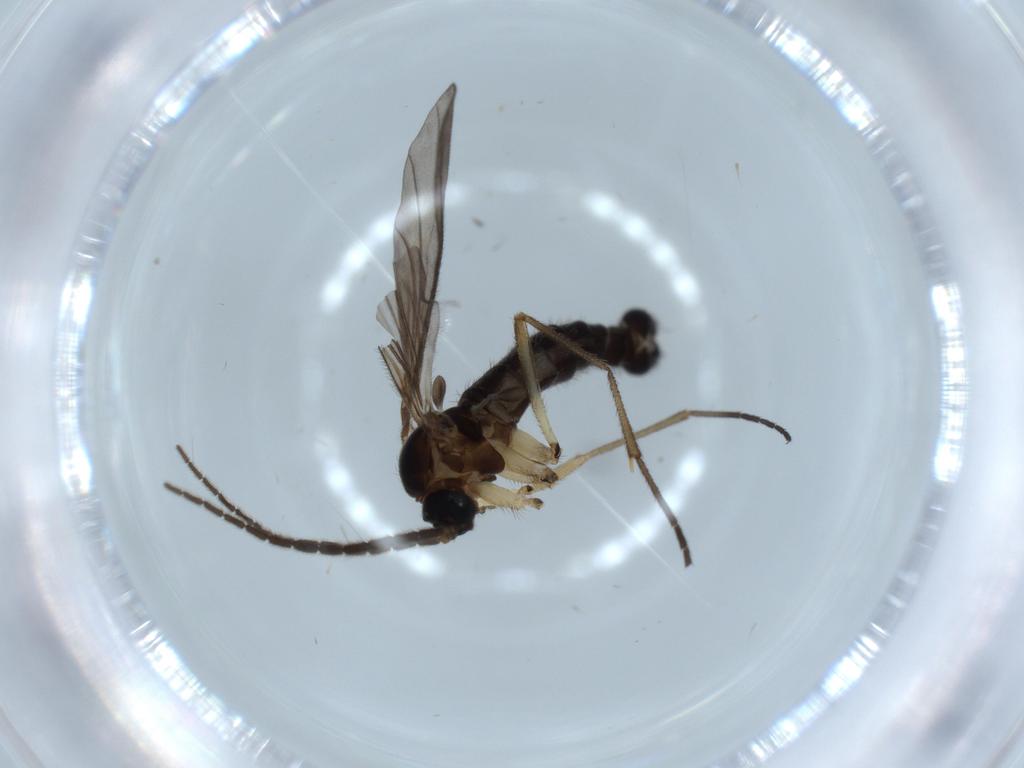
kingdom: Animalia
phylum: Arthropoda
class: Insecta
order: Diptera
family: Sciaridae
